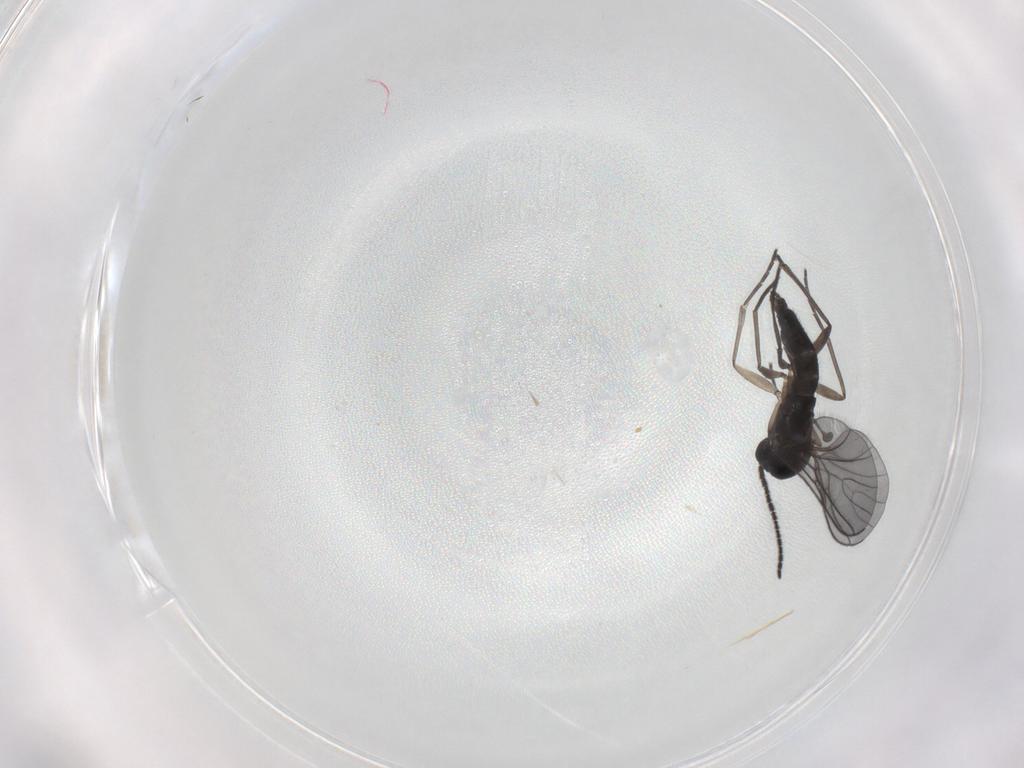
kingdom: Animalia
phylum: Arthropoda
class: Insecta
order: Diptera
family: Sciaridae
